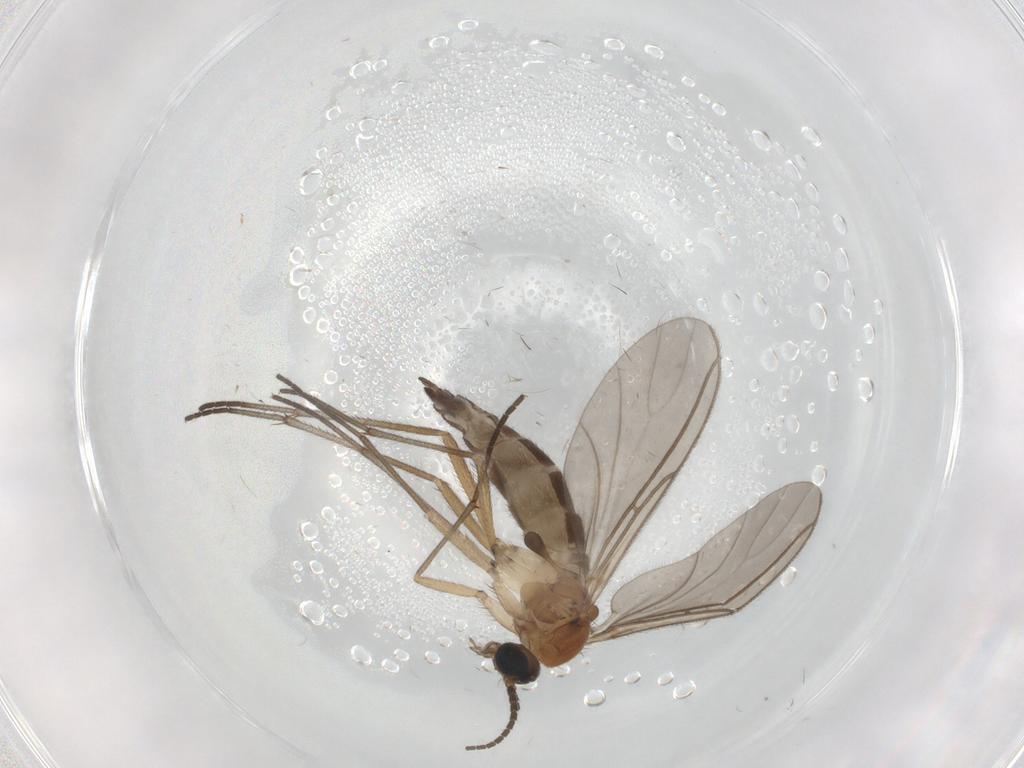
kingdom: Animalia
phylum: Arthropoda
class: Insecta
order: Diptera
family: Sciaridae
